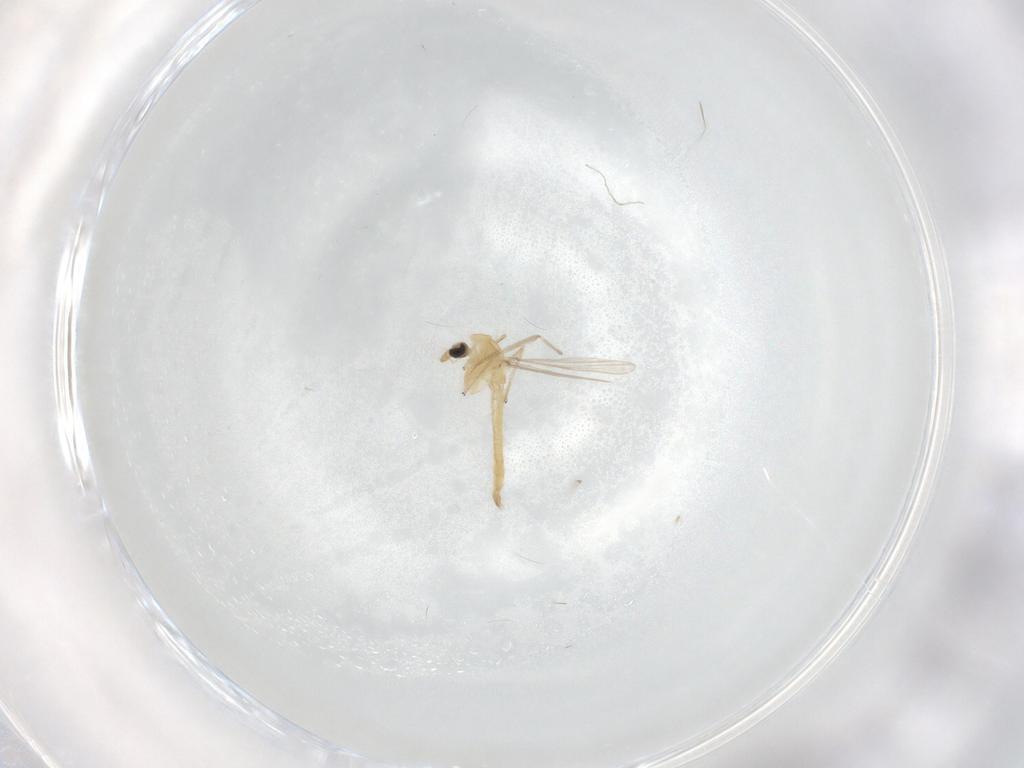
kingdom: Animalia
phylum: Arthropoda
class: Insecta
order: Diptera
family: Chironomidae
